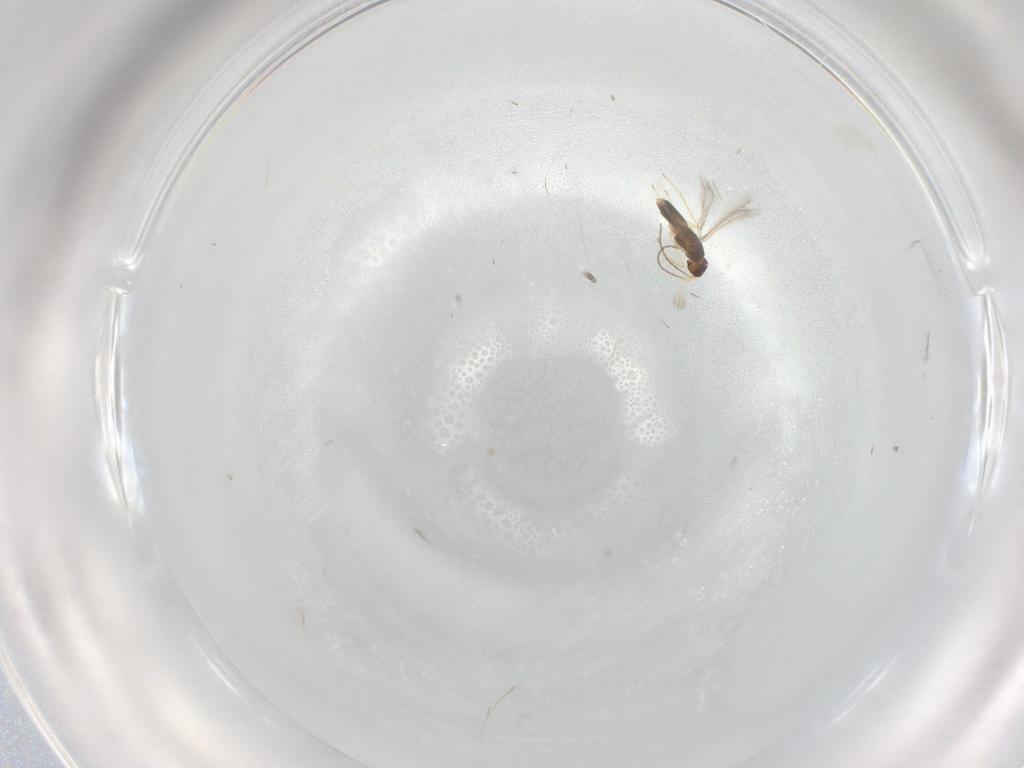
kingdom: Animalia
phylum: Arthropoda
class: Insecta
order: Hymenoptera
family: Mymaridae
